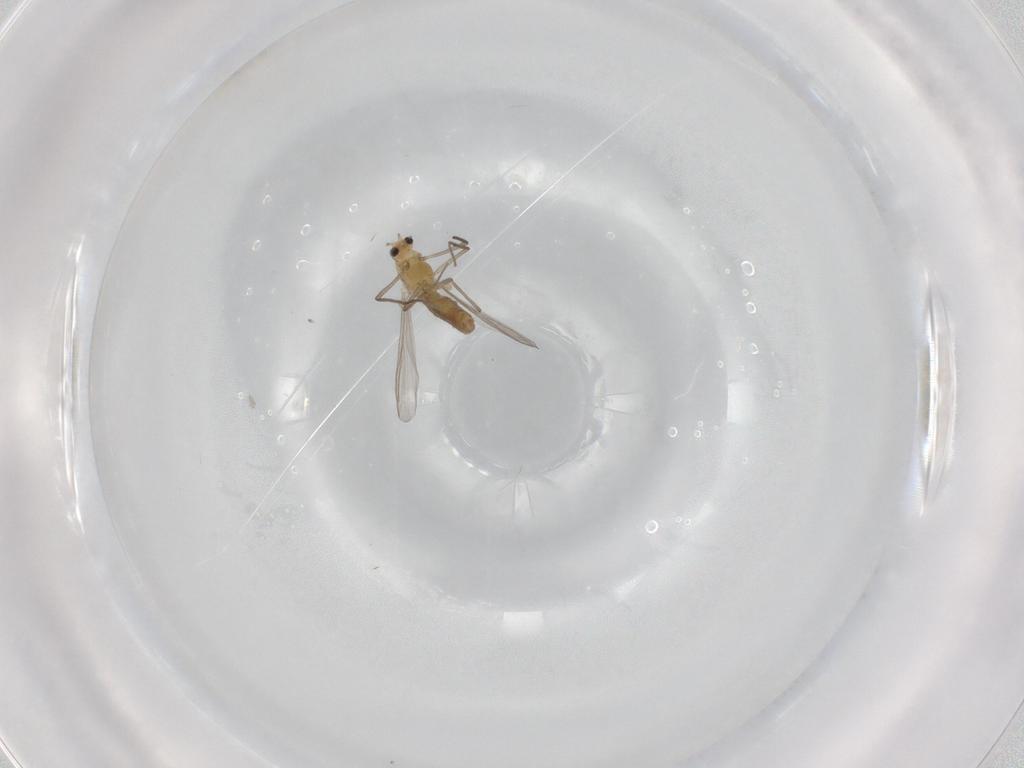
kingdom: Animalia
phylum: Arthropoda
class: Insecta
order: Diptera
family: Chironomidae
